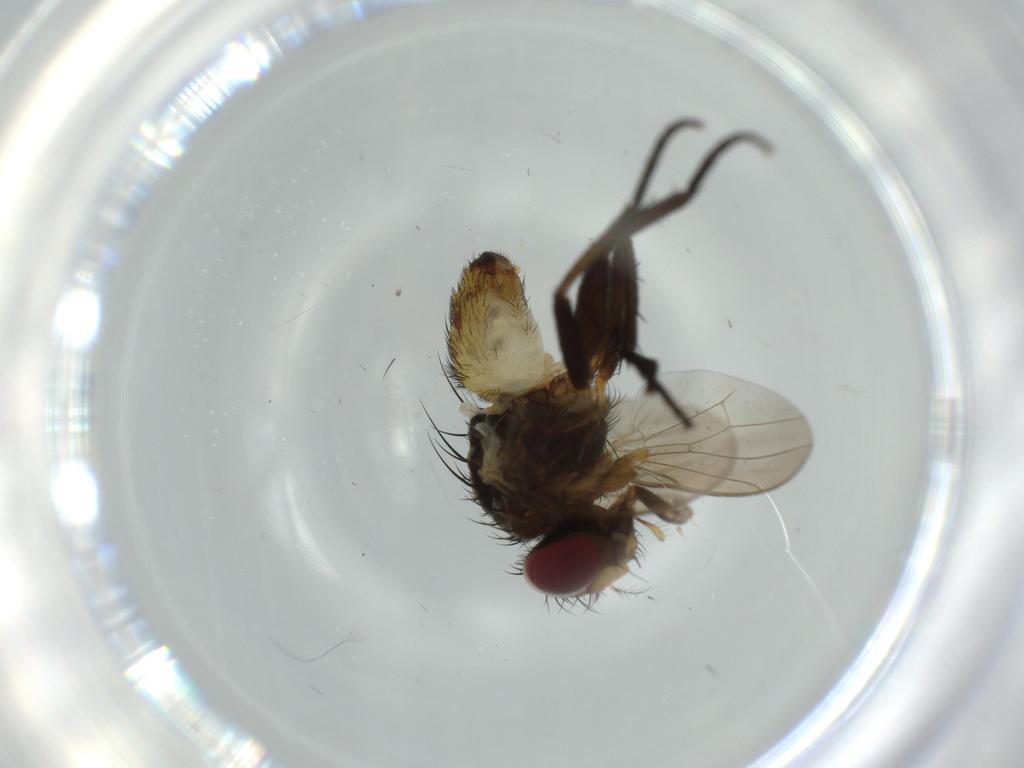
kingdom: Animalia
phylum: Arthropoda
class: Insecta
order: Diptera
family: Anthomyiidae
